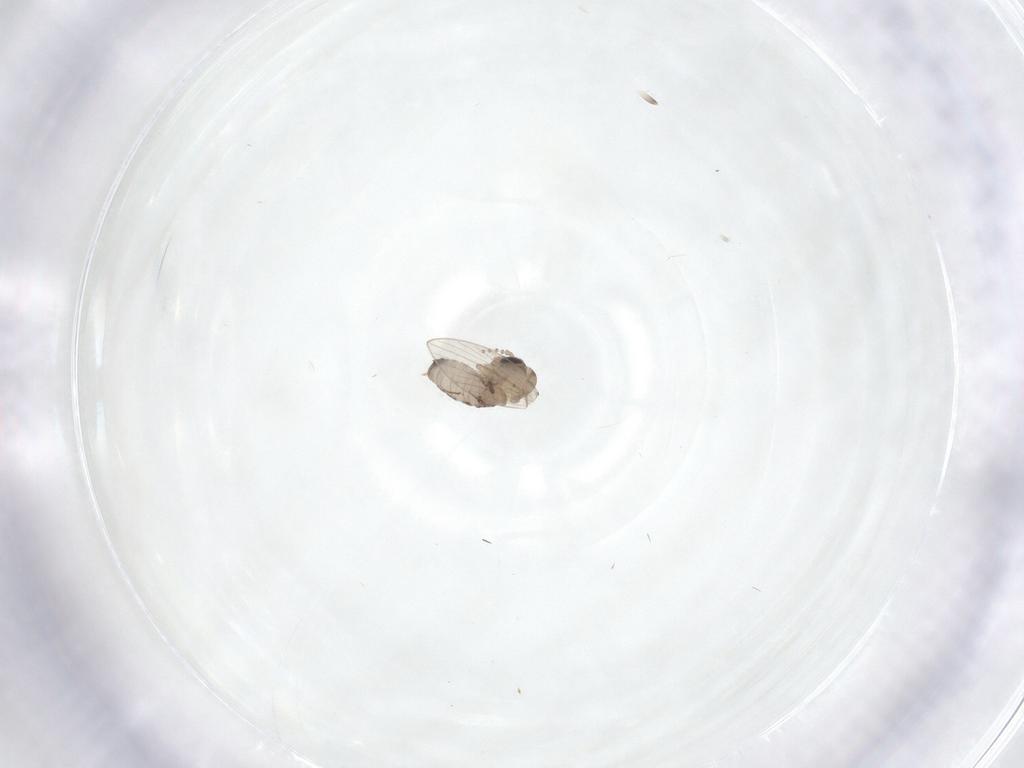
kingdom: Animalia
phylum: Arthropoda
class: Insecta
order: Diptera
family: Psychodidae
